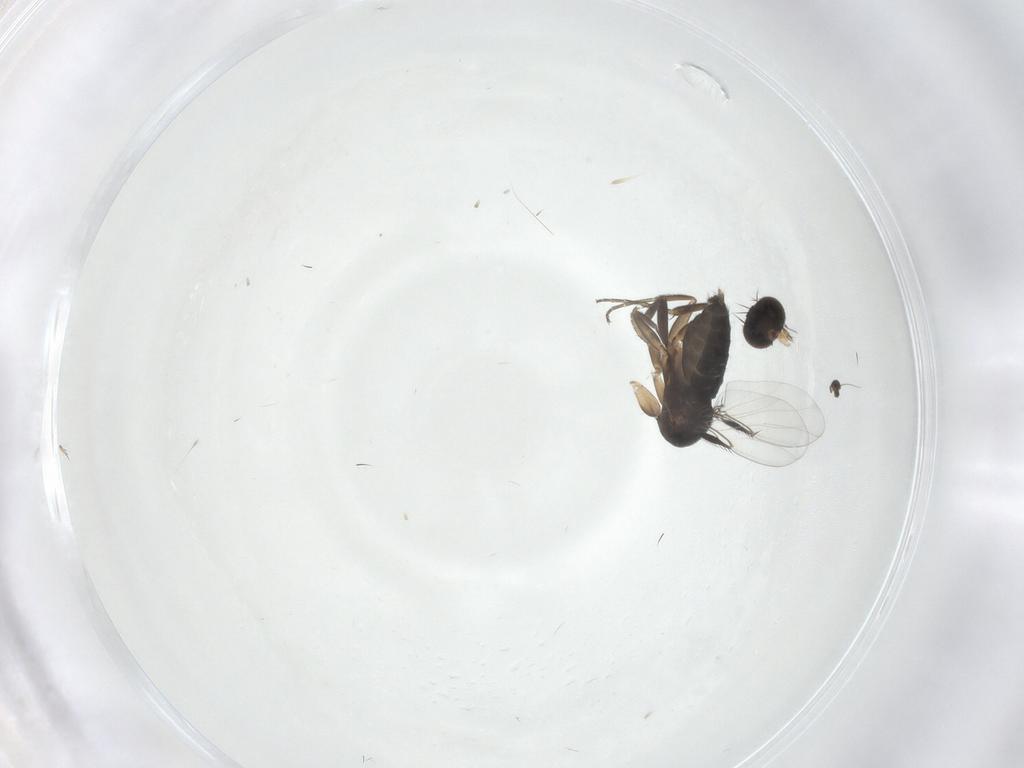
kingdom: Animalia
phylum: Arthropoda
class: Insecta
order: Diptera
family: Phoridae
